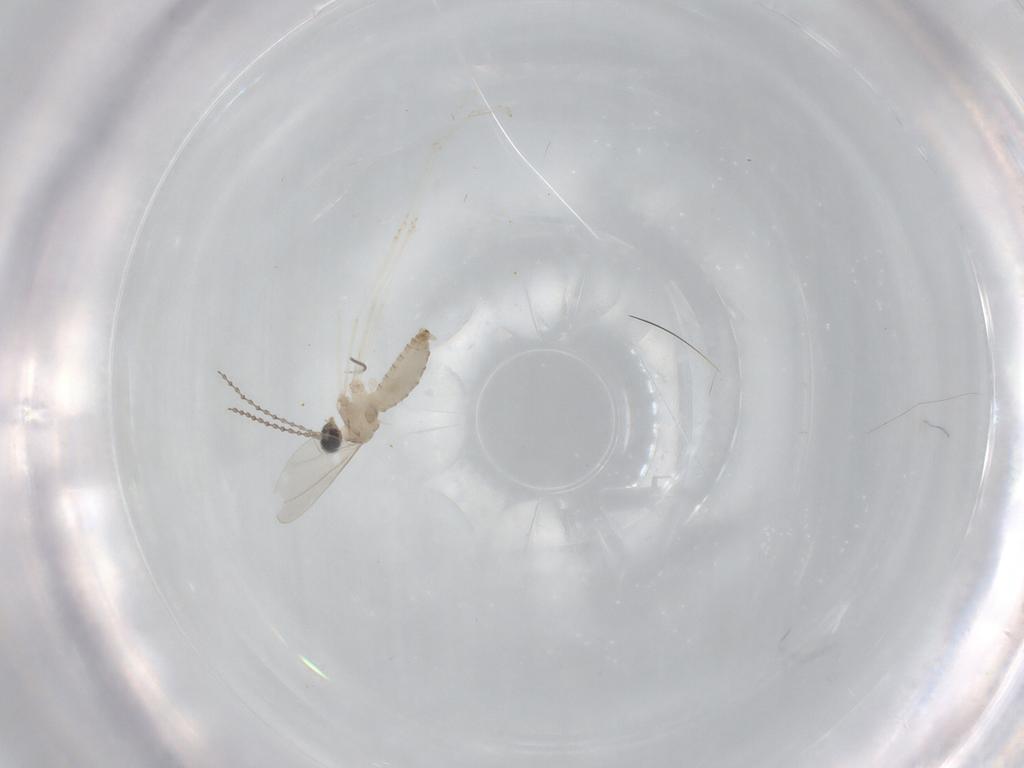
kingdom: Animalia
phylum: Arthropoda
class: Insecta
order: Diptera
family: Cecidomyiidae
